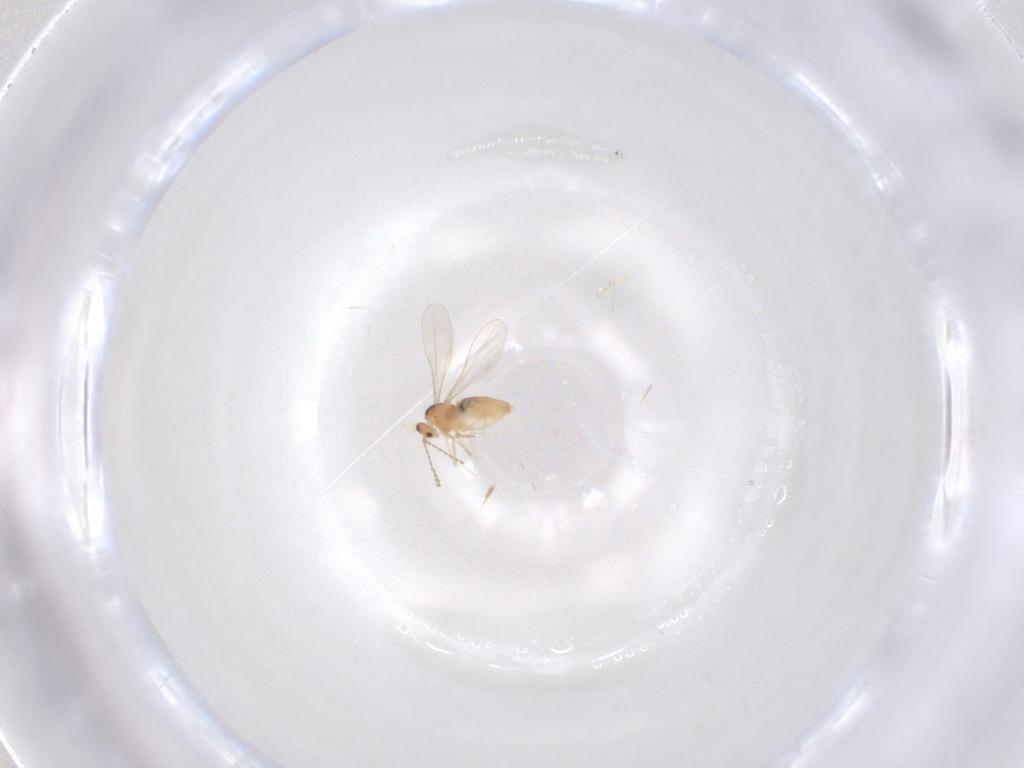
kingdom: Animalia
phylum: Arthropoda
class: Insecta
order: Diptera
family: Cecidomyiidae
